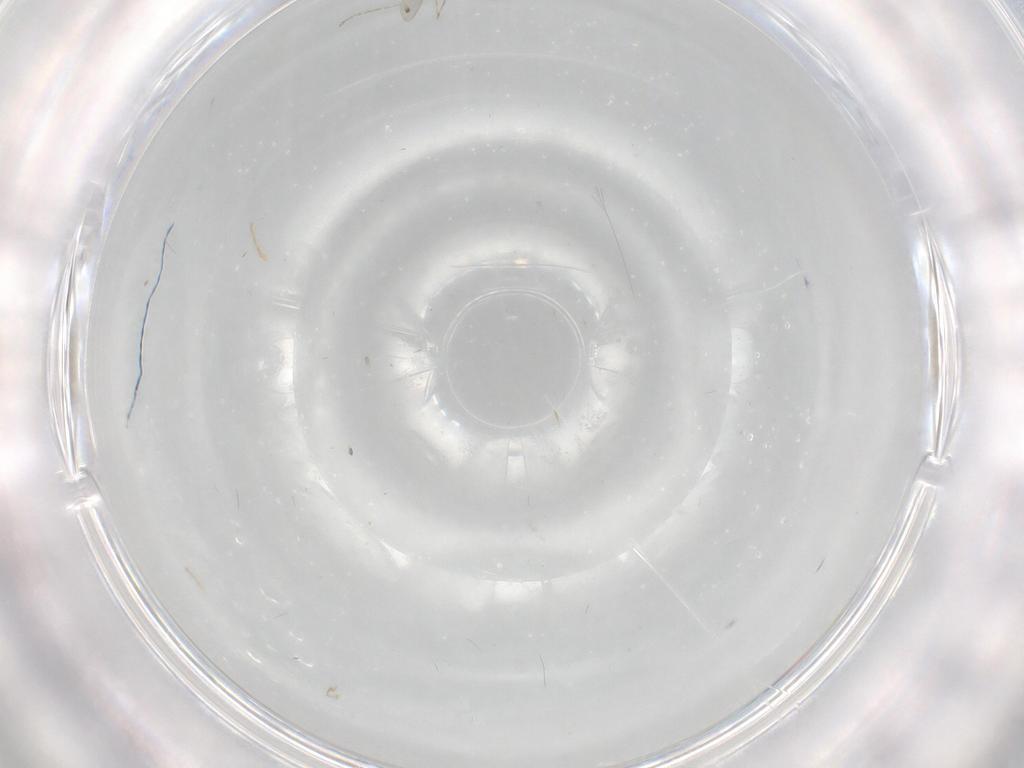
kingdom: Animalia
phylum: Arthropoda
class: Insecta
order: Diptera
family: Cecidomyiidae
